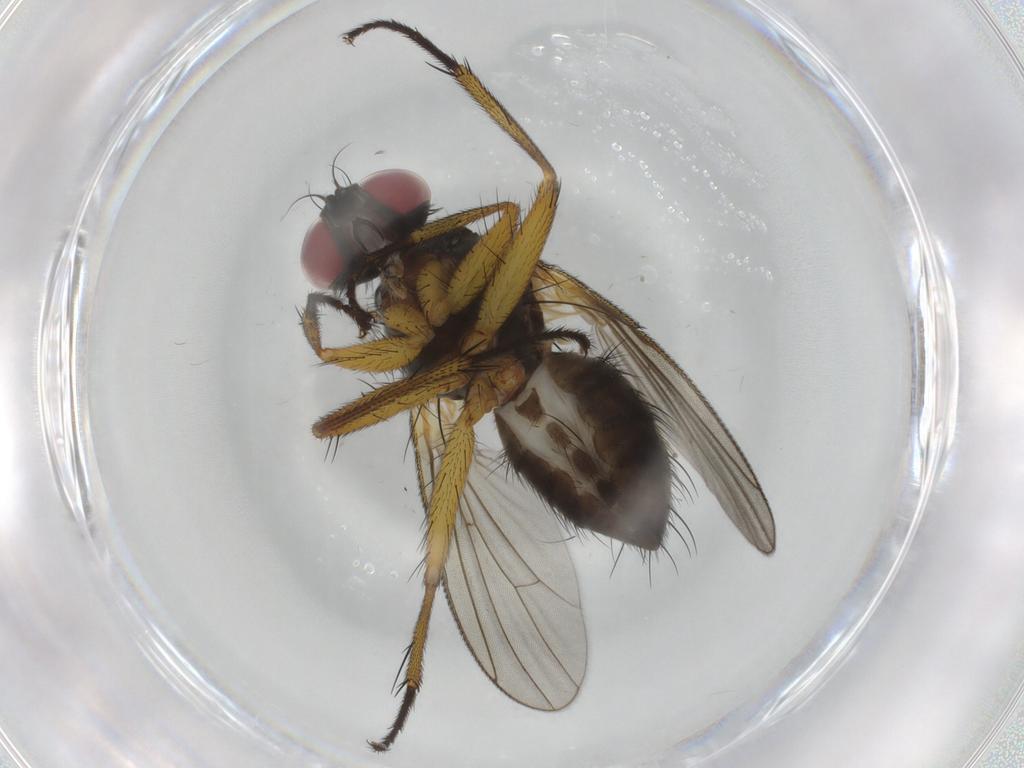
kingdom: Animalia
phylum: Arthropoda
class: Insecta
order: Diptera
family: Muscidae
